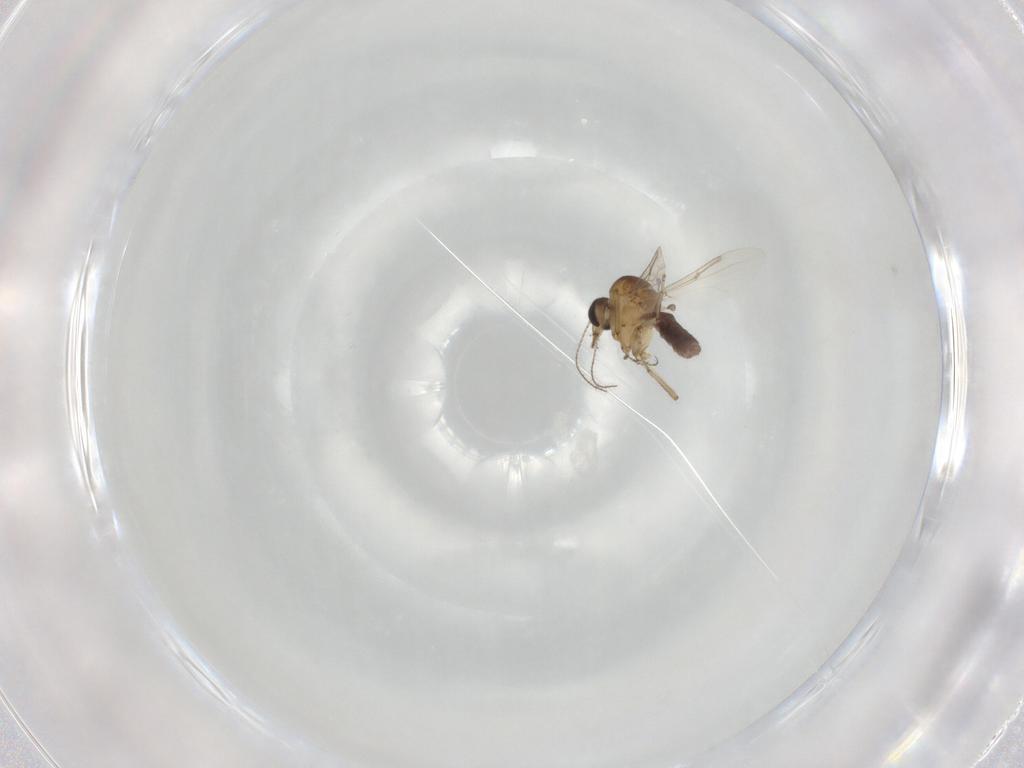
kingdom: Animalia
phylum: Arthropoda
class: Insecta
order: Diptera
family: Ceratopogonidae
